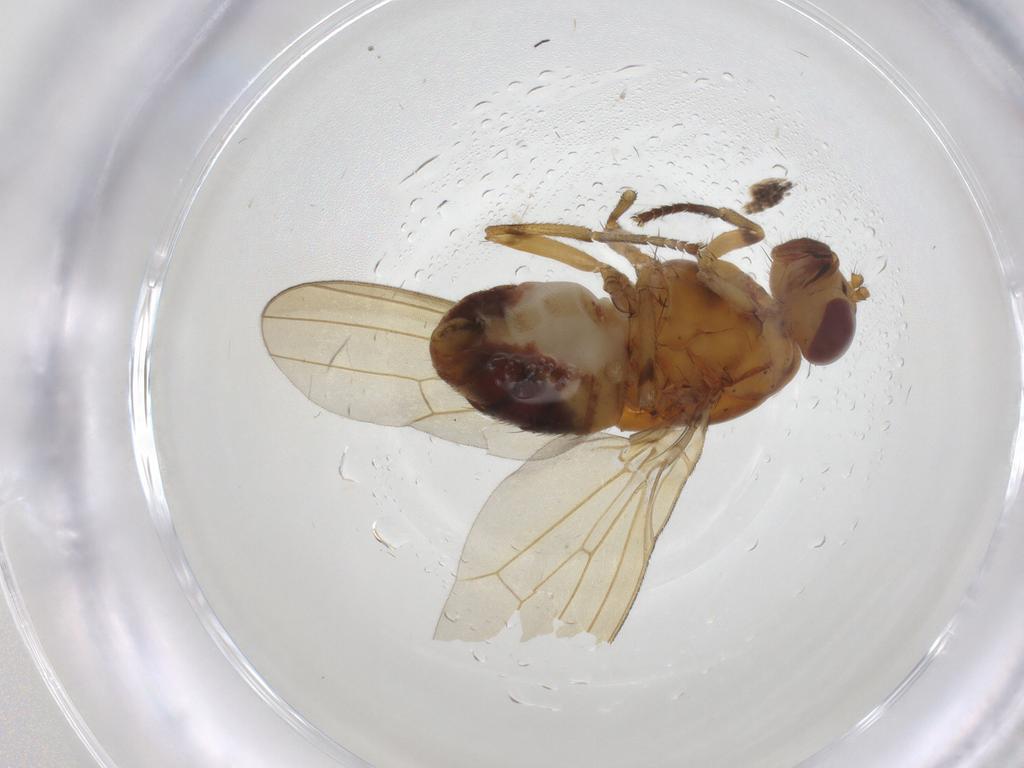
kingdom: Animalia
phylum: Arthropoda
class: Insecta
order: Diptera
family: Lauxaniidae
